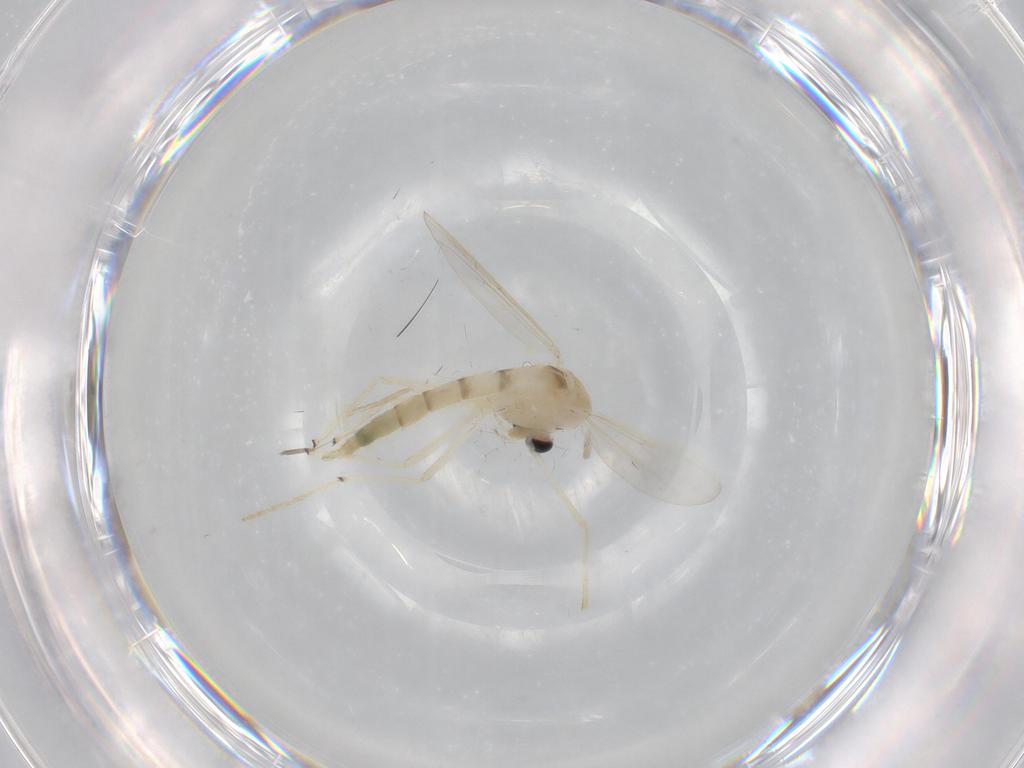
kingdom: Animalia
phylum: Arthropoda
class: Insecta
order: Diptera
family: Chironomidae
